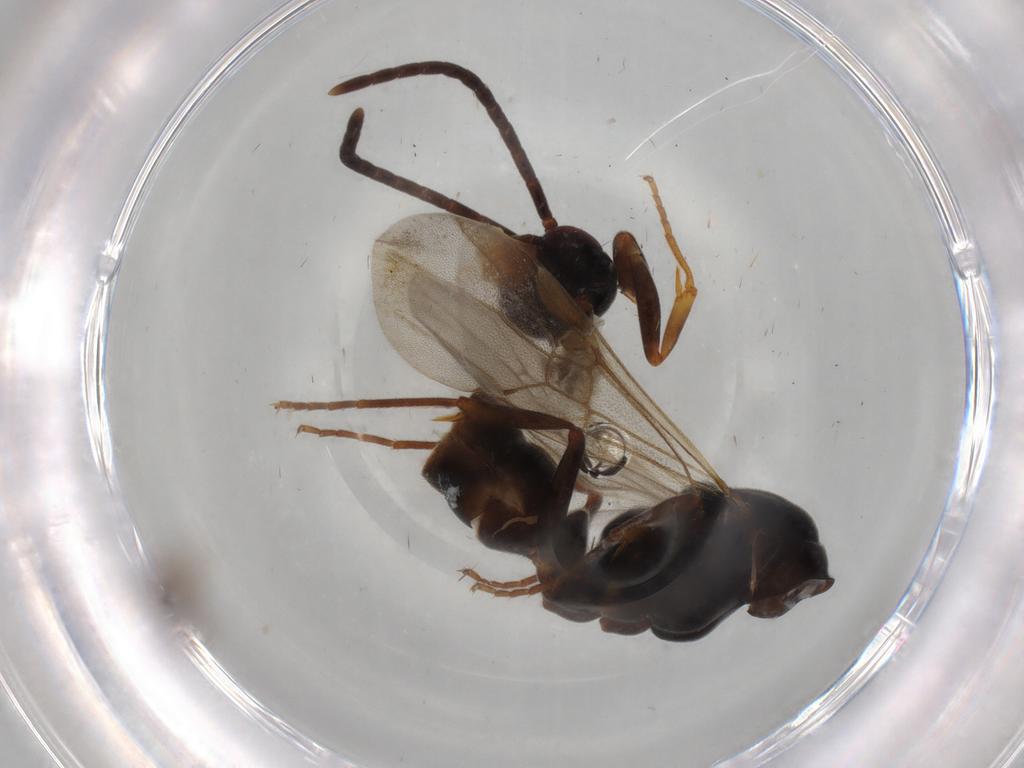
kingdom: Animalia
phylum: Arthropoda
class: Insecta
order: Hymenoptera
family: Formicidae
